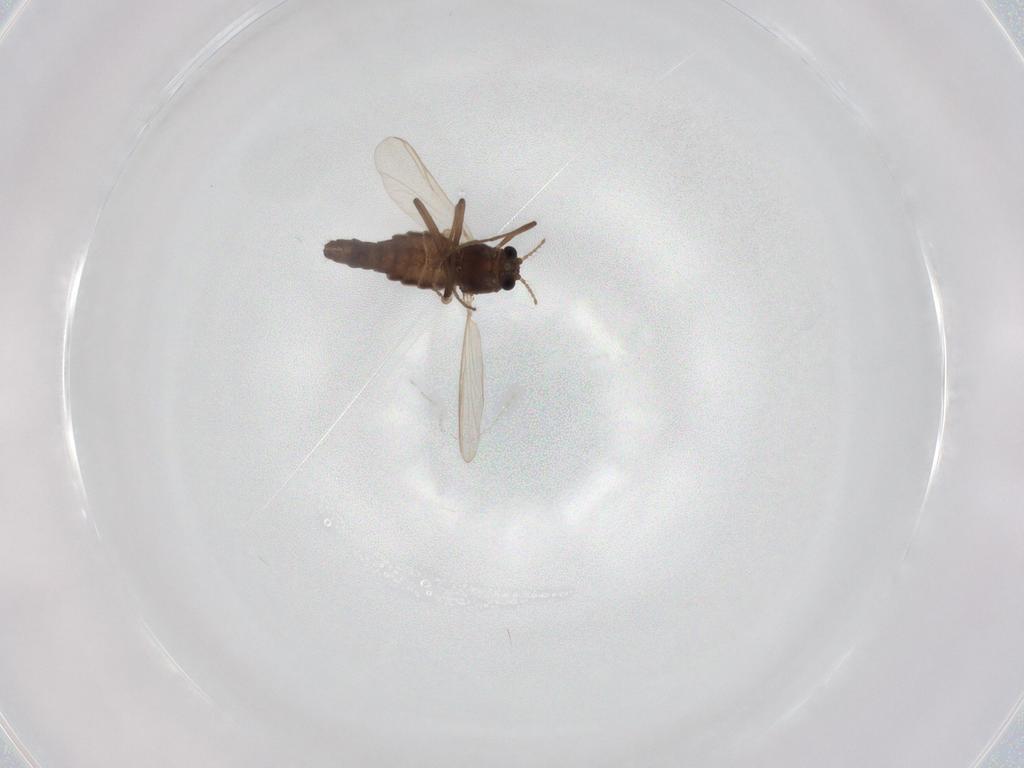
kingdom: Animalia
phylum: Arthropoda
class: Insecta
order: Diptera
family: Chironomidae
